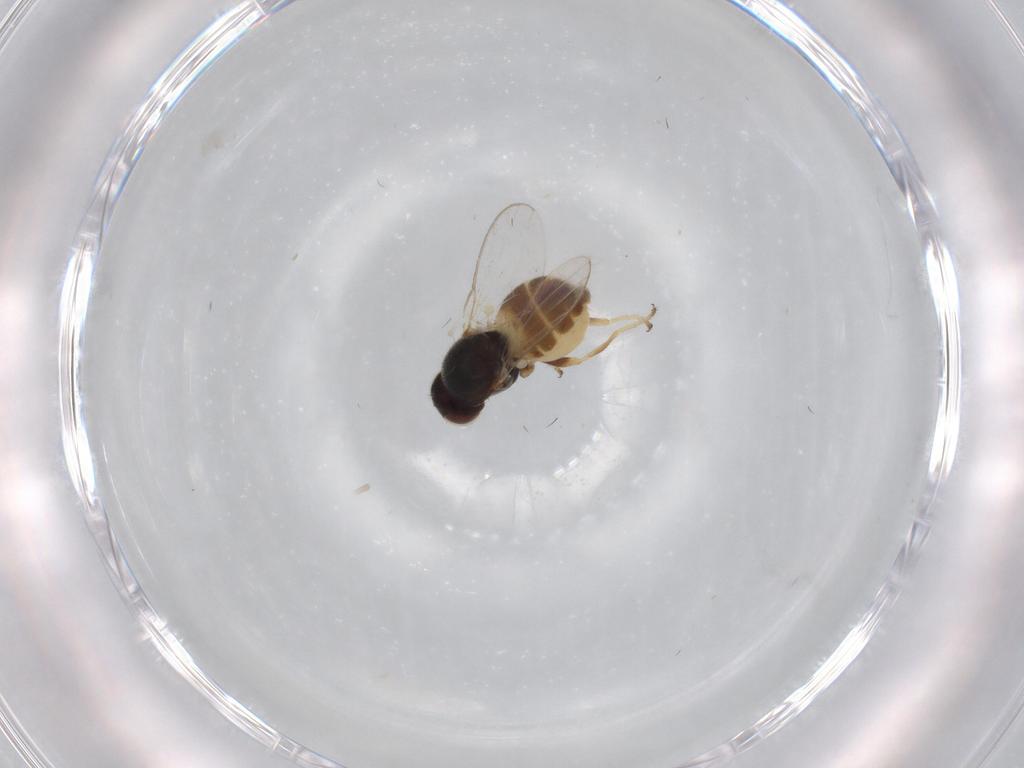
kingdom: Animalia
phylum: Arthropoda
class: Insecta
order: Diptera
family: Chloropidae
